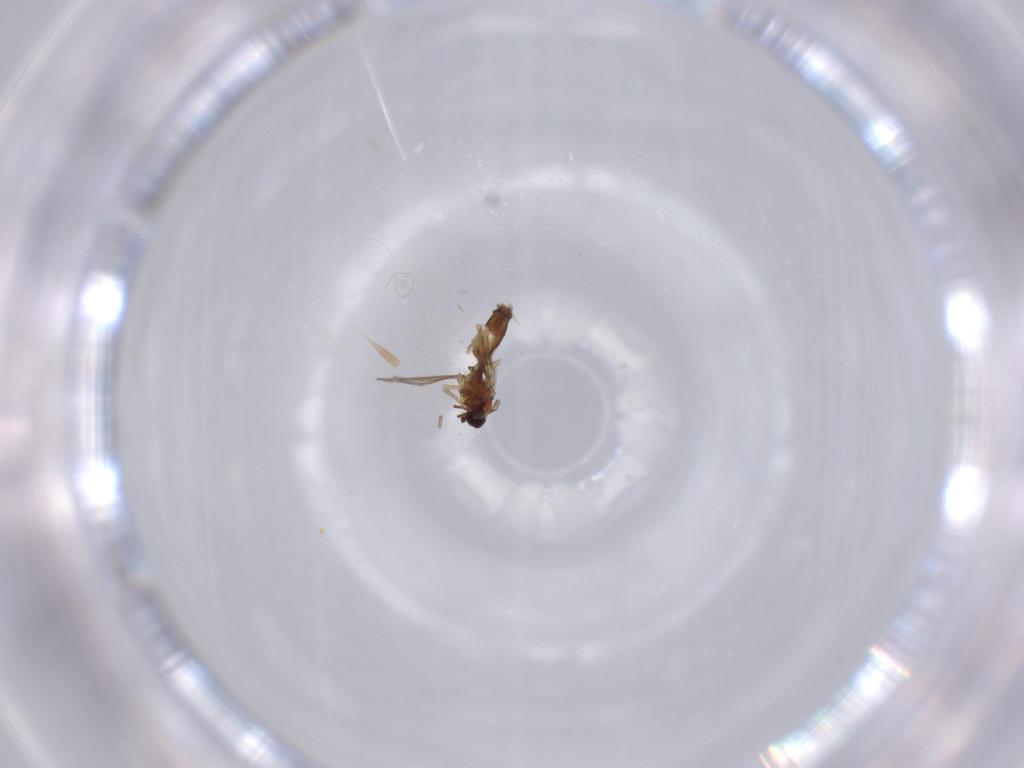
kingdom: Animalia
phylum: Arthropoda
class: Insecta
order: Diptera
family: Chironomidae
